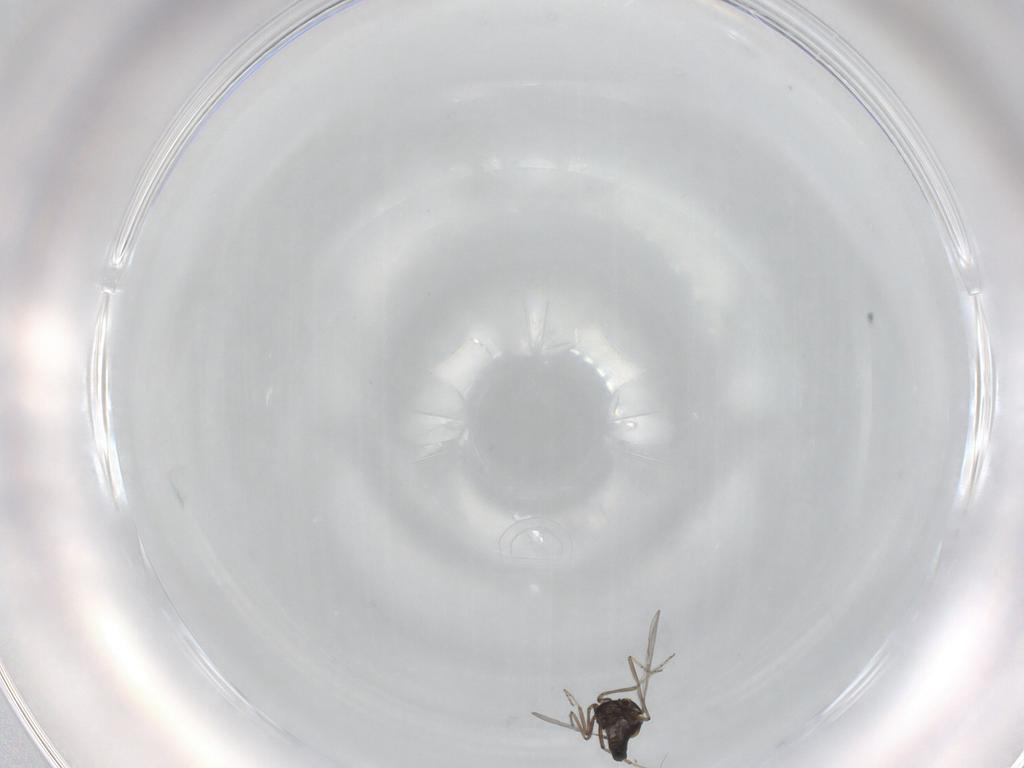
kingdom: Animalia
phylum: Arthropoda
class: Insecta
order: Diptera
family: Ceratopogonidae
